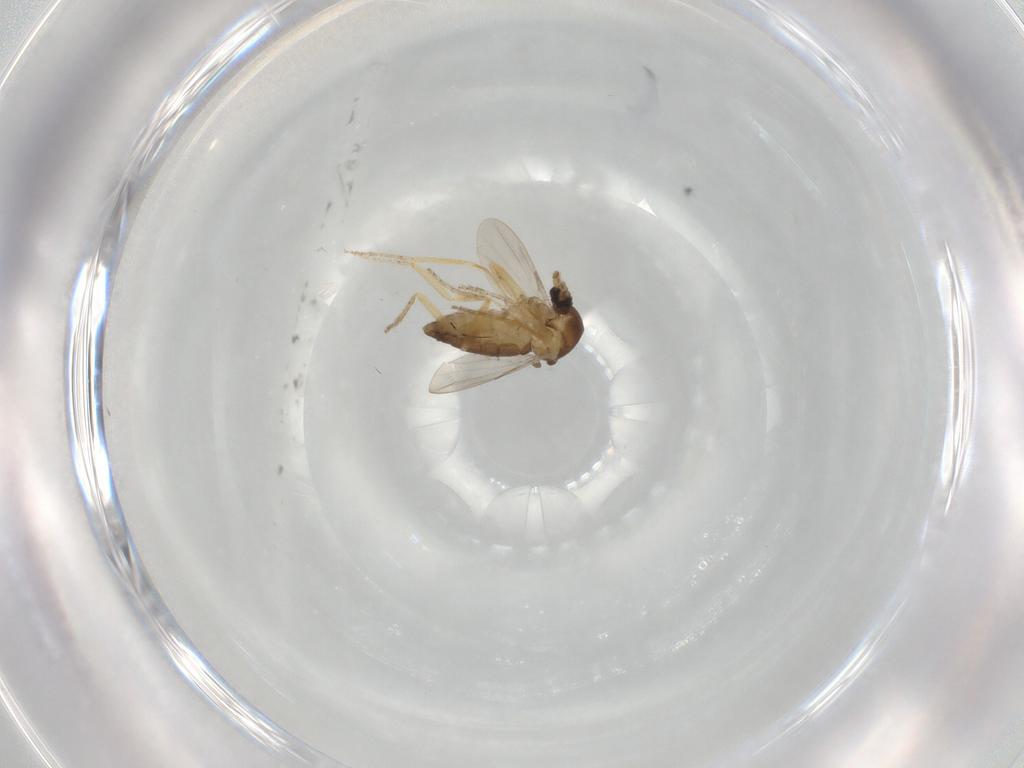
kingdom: Animalia
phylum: Arthropoda
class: Insecta
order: Diptera
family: Ceratopogonidae
